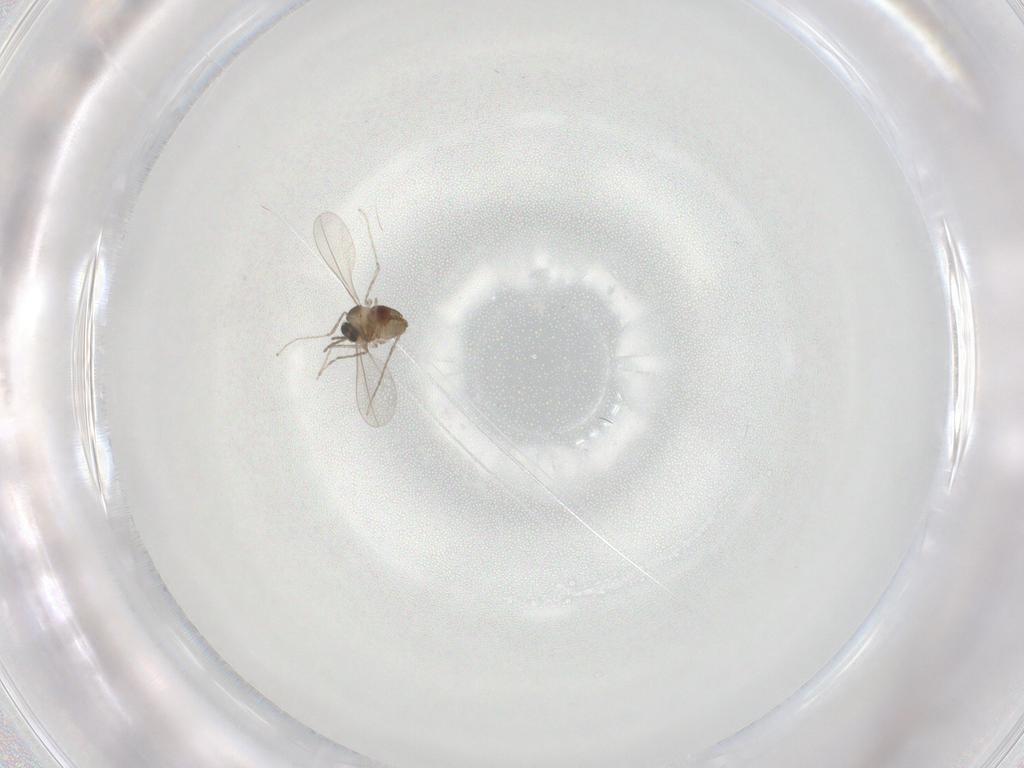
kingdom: Animalia
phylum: Arthropoda
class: Insecta
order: Diptera
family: Cecidomyiidae
